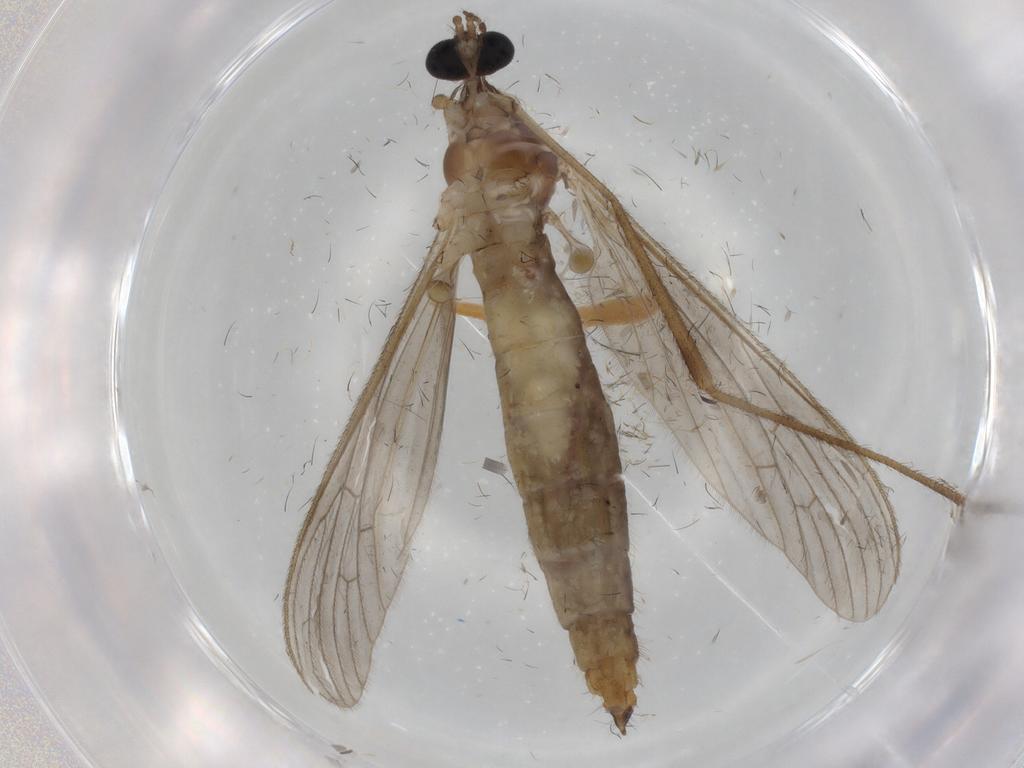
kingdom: Animalia
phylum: Arthropoda
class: Insecta
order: Diptera
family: Limoniidae
